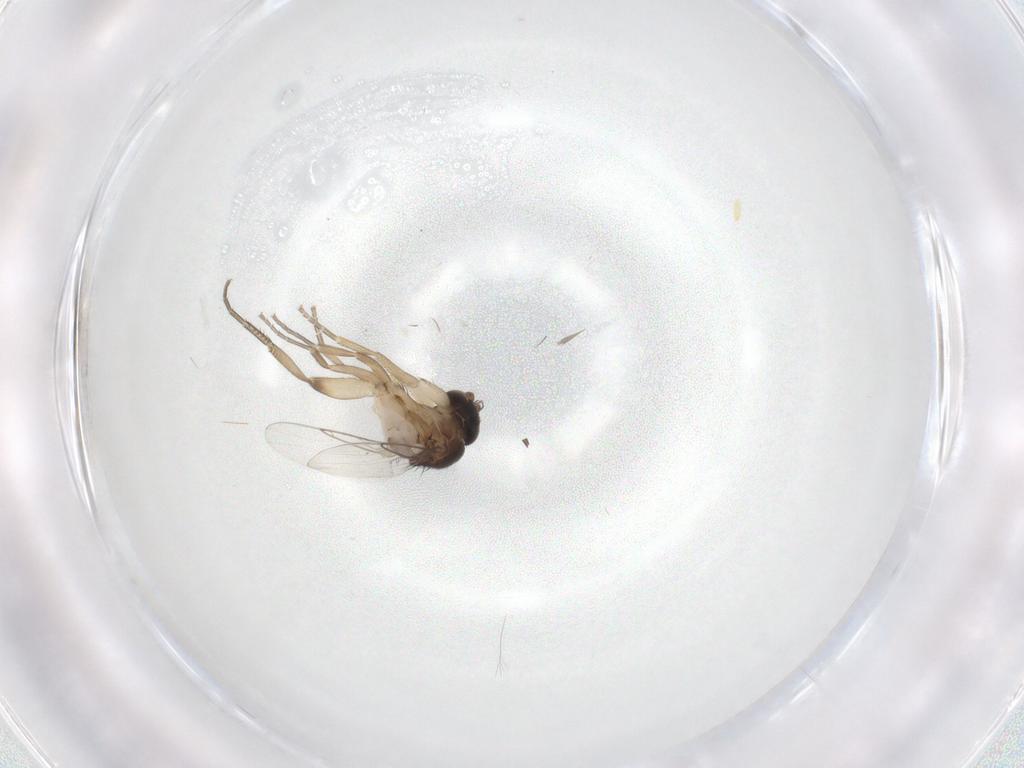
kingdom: Animalia
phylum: Arthropoda
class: Insecta
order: Diptera
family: Phoridae
